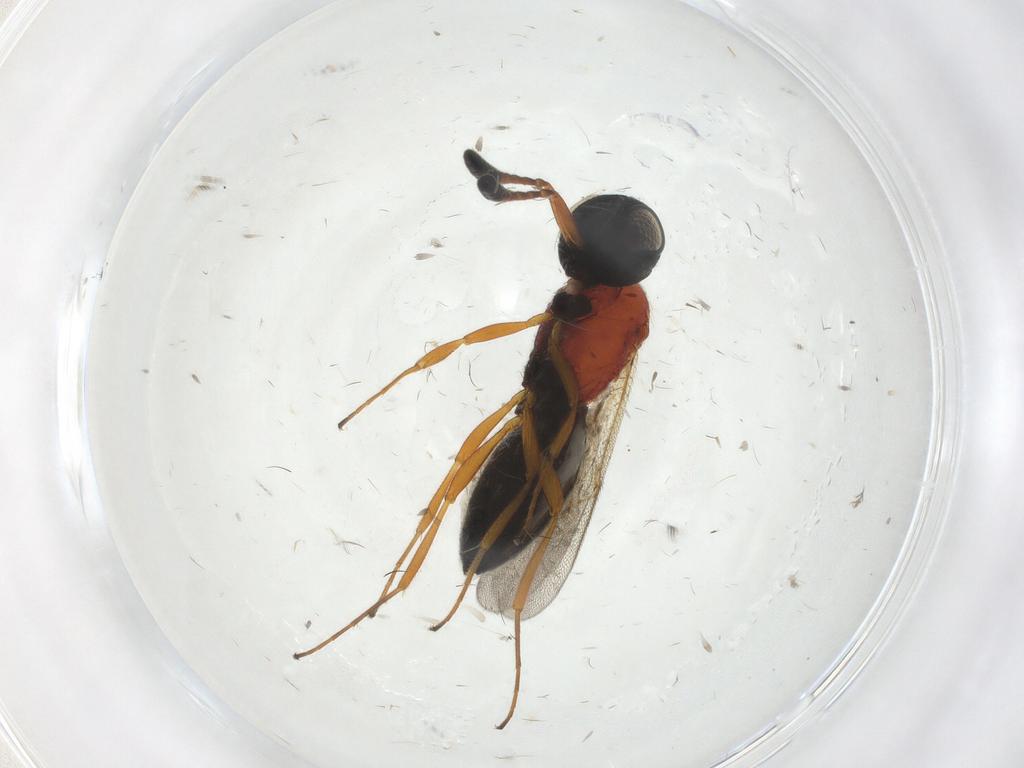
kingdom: Animalia
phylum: Arthropoda
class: Insecta
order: Hymenoptera
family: Scelionidae
